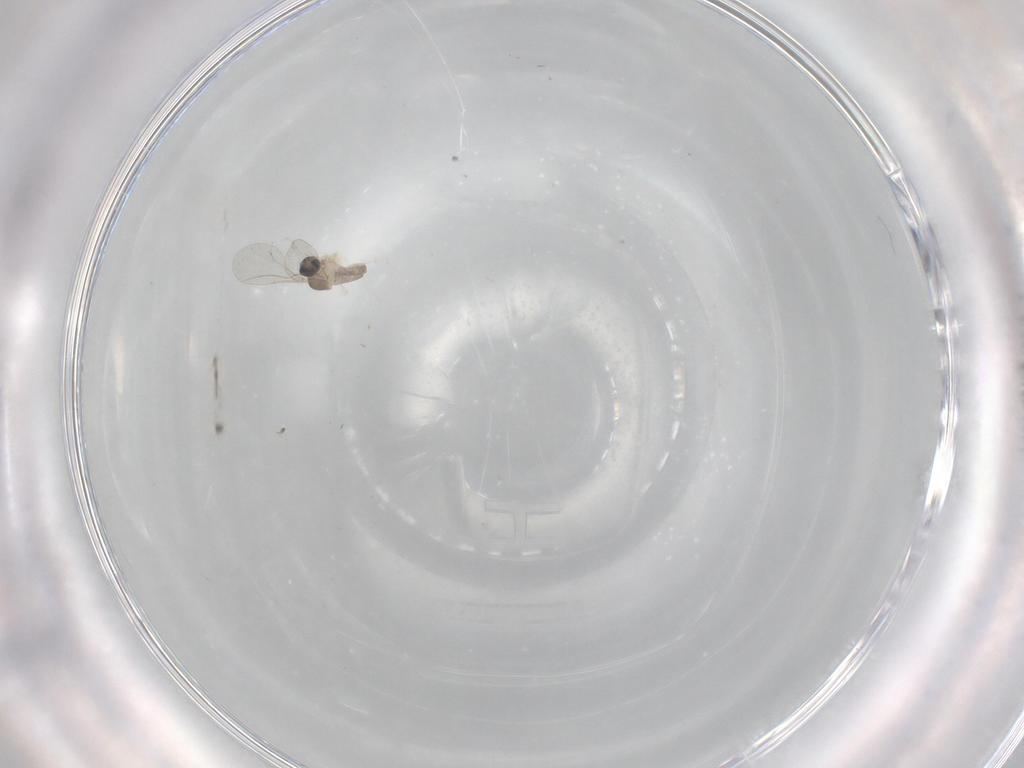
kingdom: Animalia
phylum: Arthropoda
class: Insecta
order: Diptera
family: Cecidomyiidae
